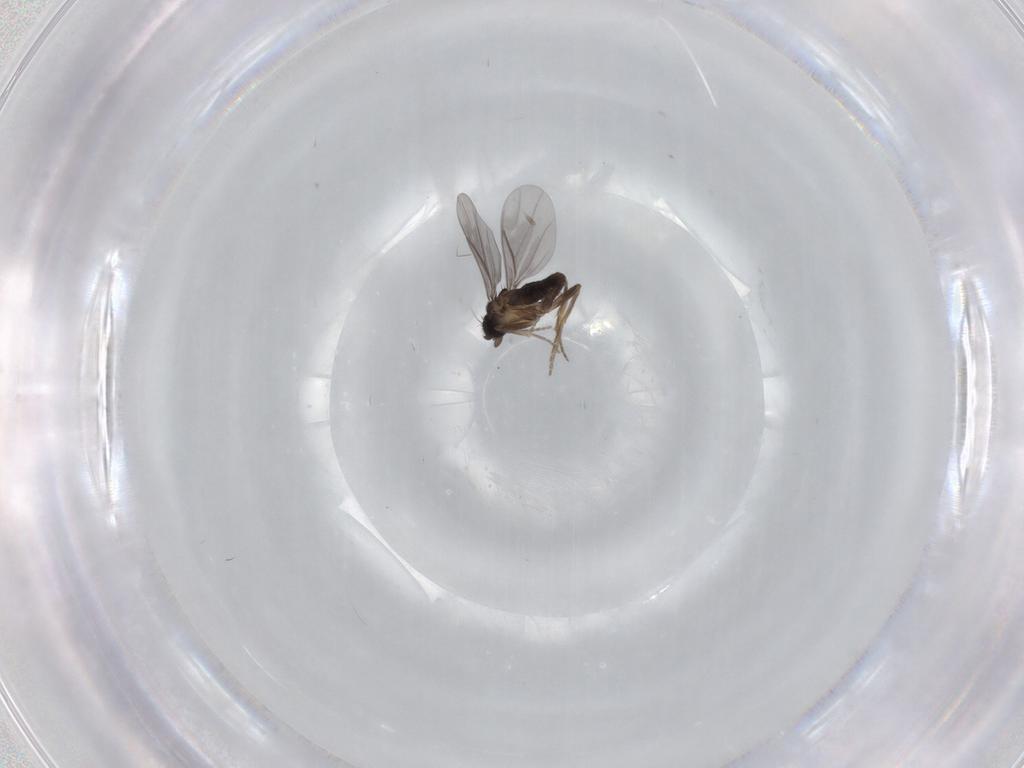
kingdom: Animalia
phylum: Arthropoda
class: Insecta
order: Diptera
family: Phoridae
